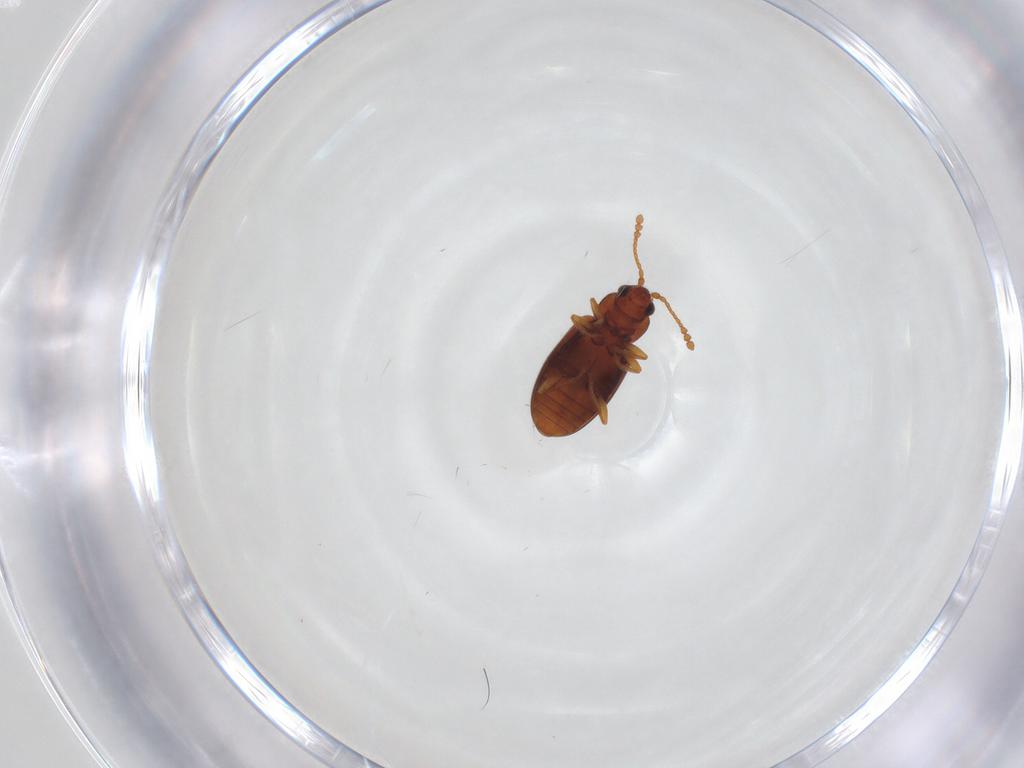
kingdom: Animalia
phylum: Arthropoda
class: Insecta
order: Coleoptera
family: Cryptophagidae
